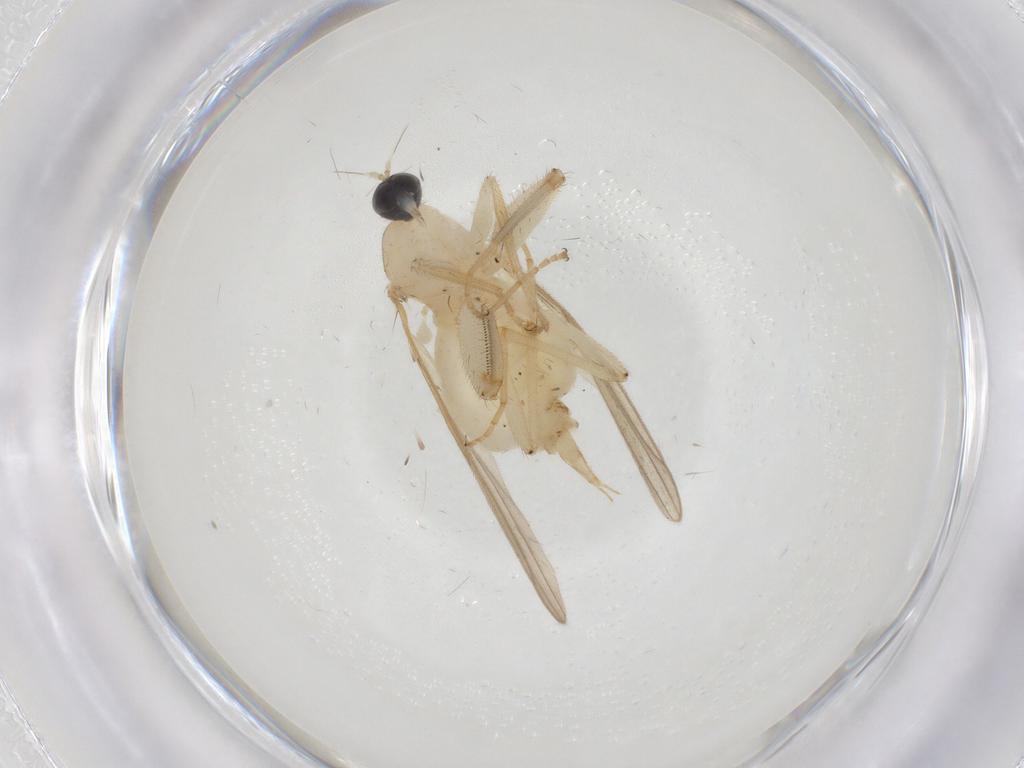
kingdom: Animalia
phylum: Arthropoda
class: Insecta
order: Diptera
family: Hybotidae
